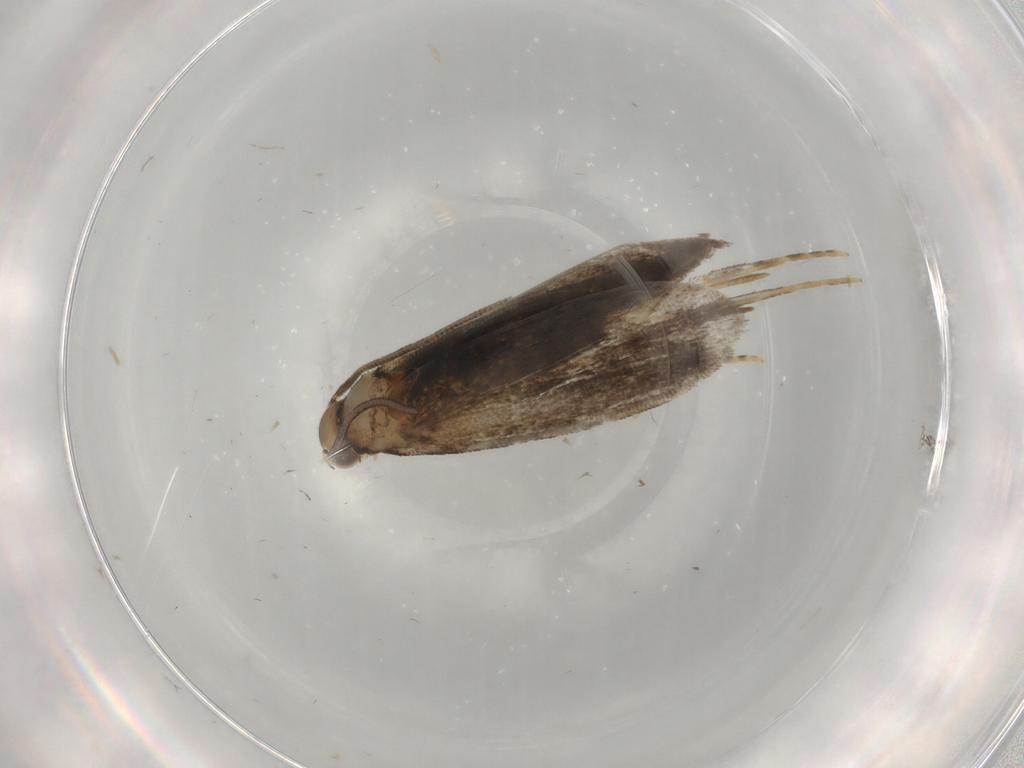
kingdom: Animalia
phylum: Arthropoda
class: Insecta
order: Lepidoptera
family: Dryadaulidae
